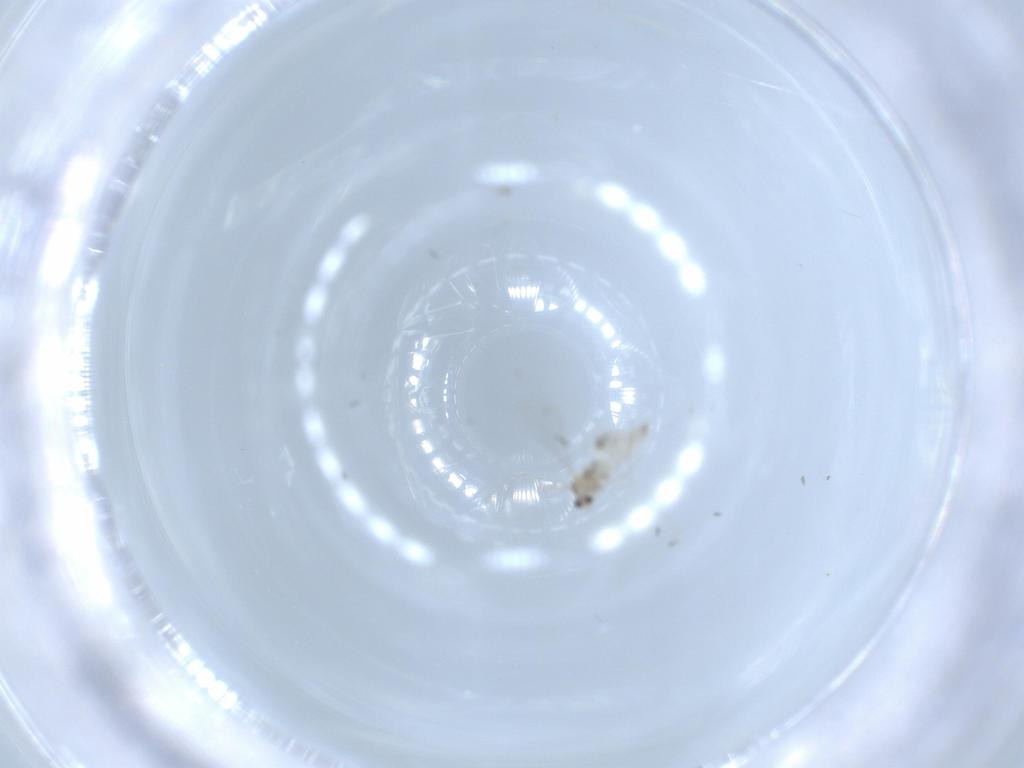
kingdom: Animalia
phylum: Arthropoda
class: Insecta
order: Diptera
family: Cecidomyiidae
